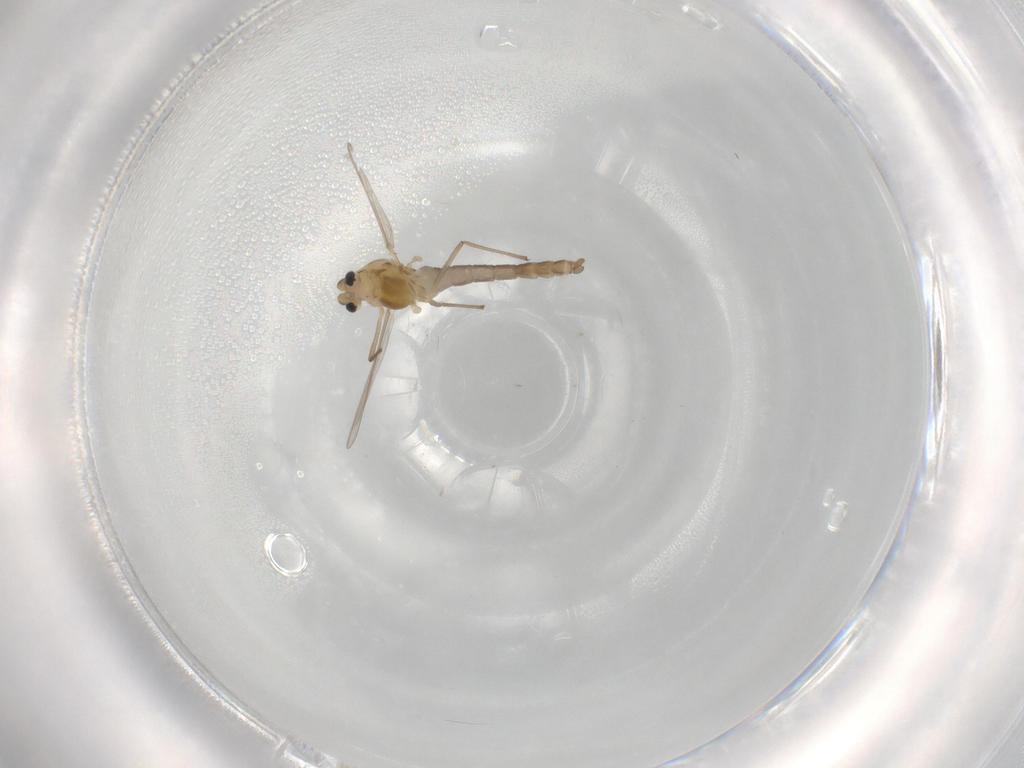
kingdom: Animalia
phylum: Arthropoda
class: Insecta
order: Diptera
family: Chironomidae
